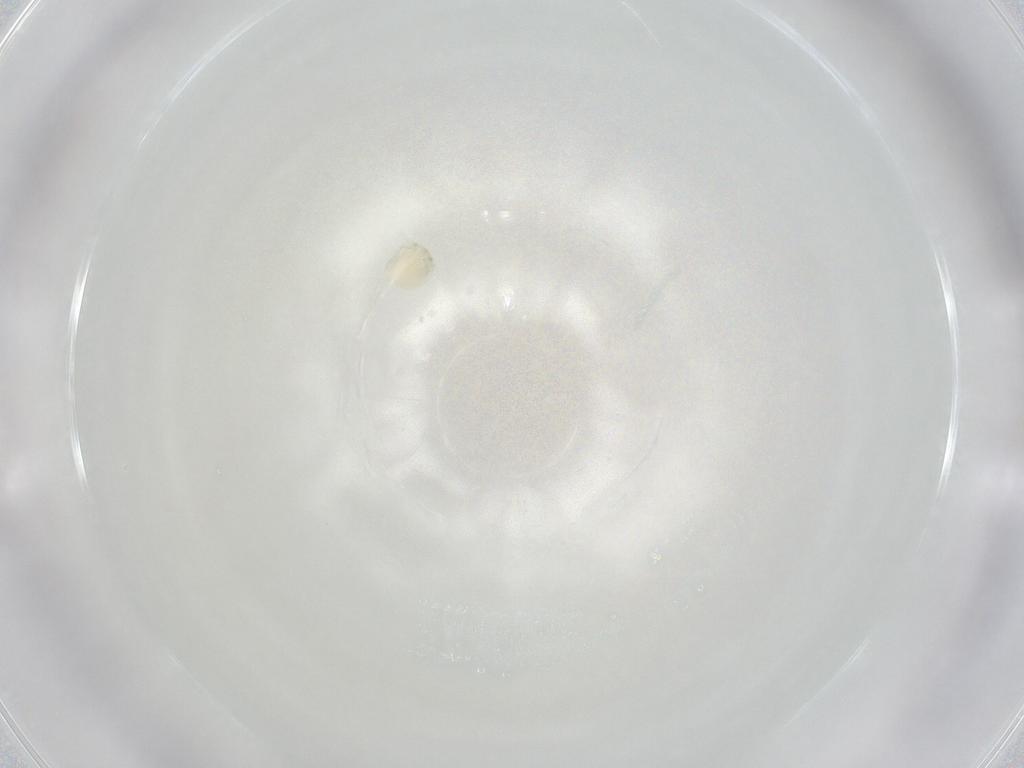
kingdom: Animalia
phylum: Arthropoda
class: Arachnida
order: Trombidiformes
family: Arrenuridae
